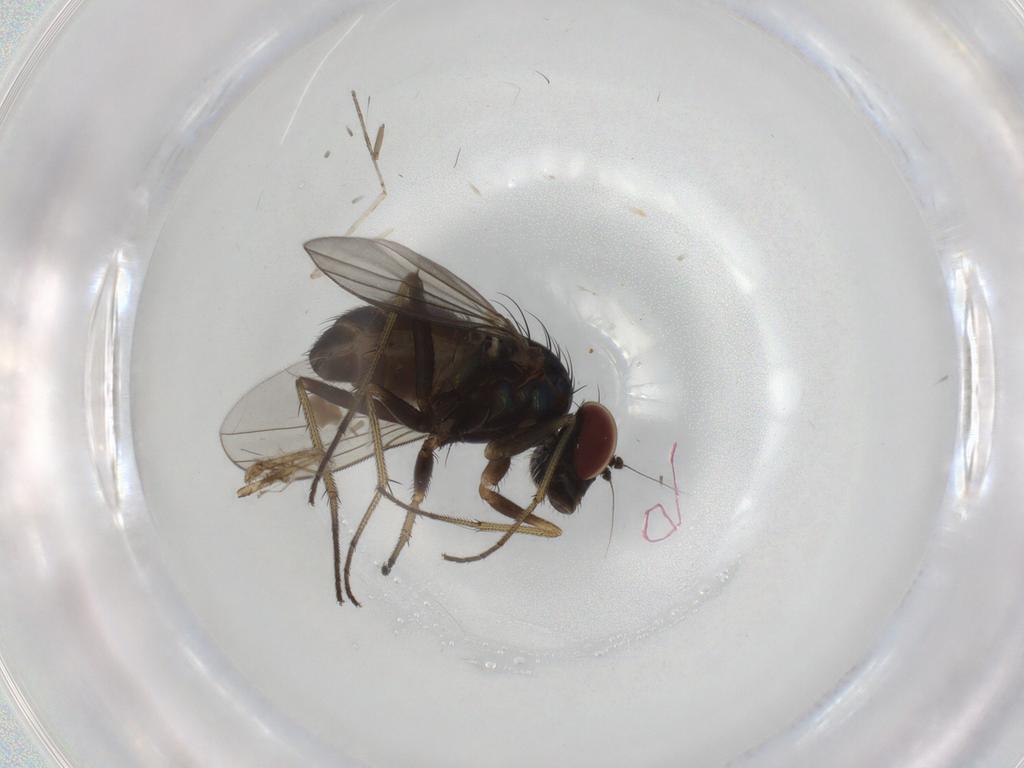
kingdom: Animalia
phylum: Arthropoda
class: Insecta
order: Diptera
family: Dolichopodidae
